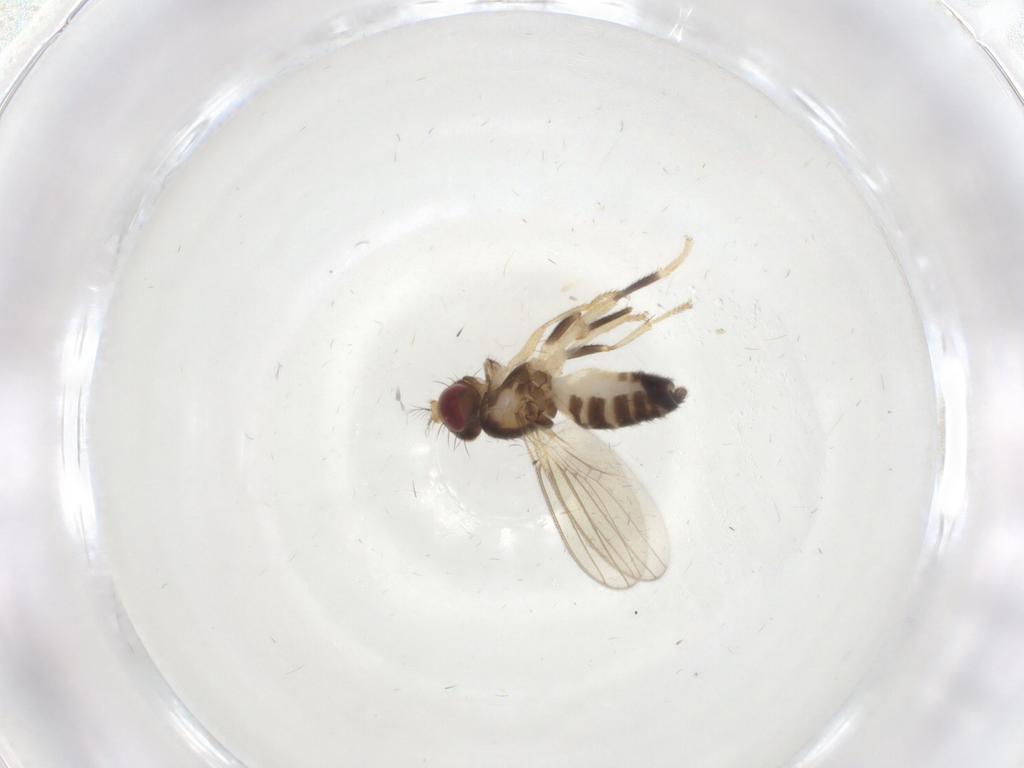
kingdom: Animalia
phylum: Arthropoda
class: Insecta
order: Diptera
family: Periscelididae
